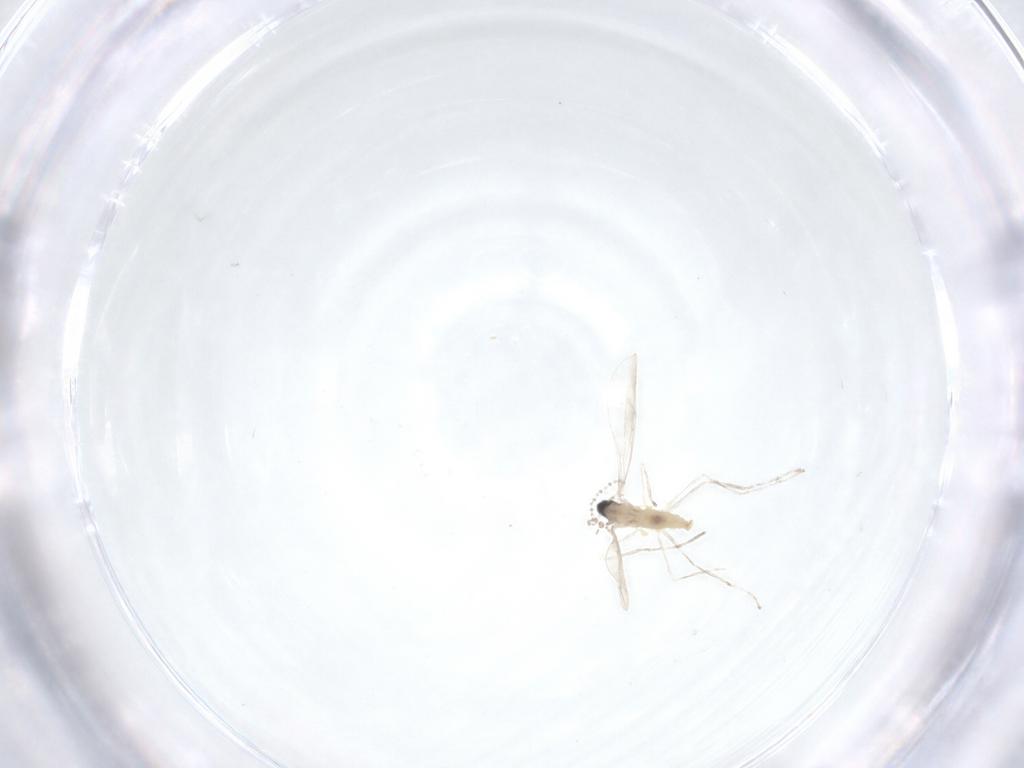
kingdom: Animalia
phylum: Arthropoda
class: Insecta
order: Diptera
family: Cecidomyiidae
